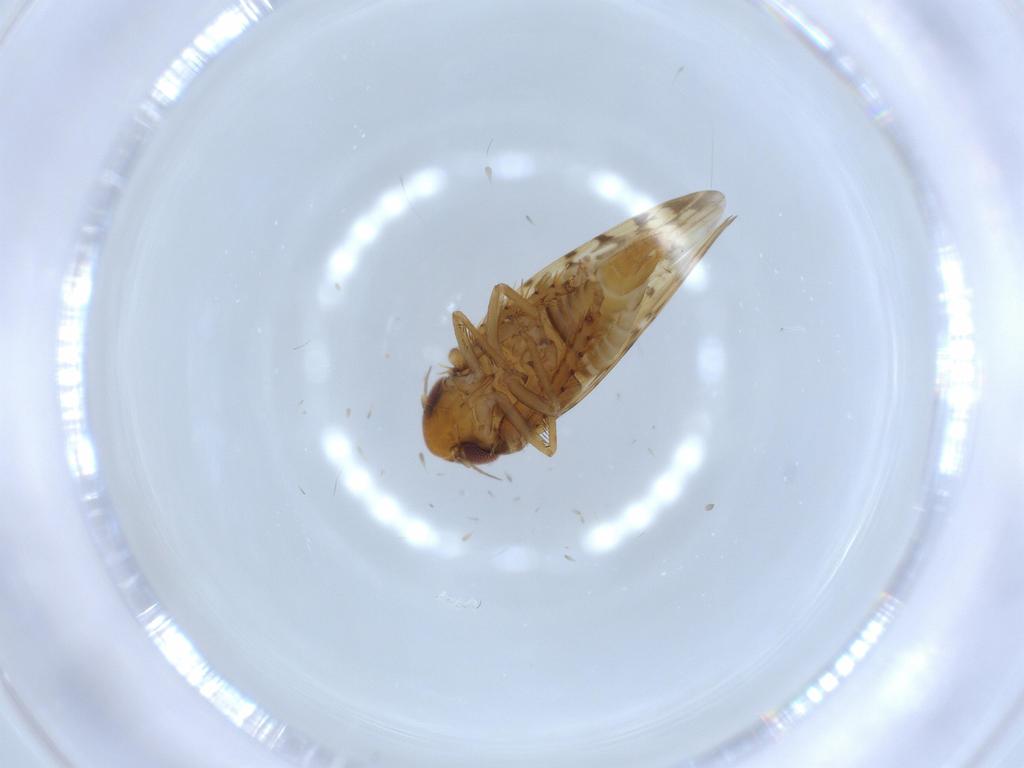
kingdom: Animalia
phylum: Arthropoda
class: Insecta
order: Hemiptera
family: Cicadellidae
